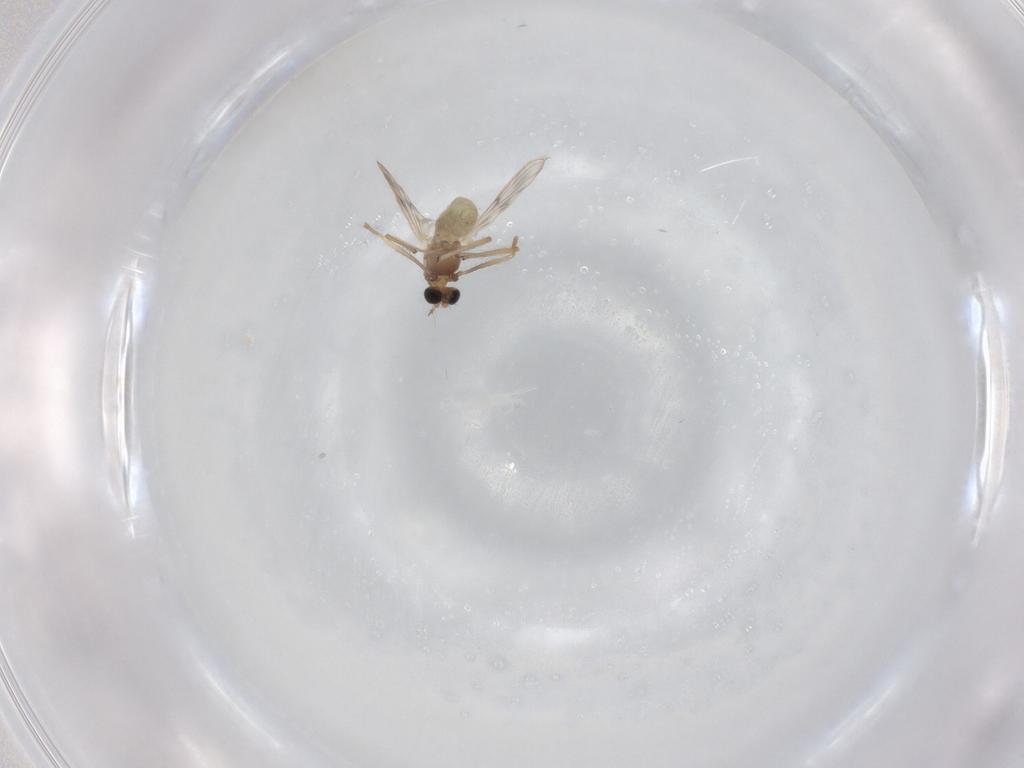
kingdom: Animalia
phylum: Arthropoda
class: Insecta
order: Diptera
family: Chironomidae
